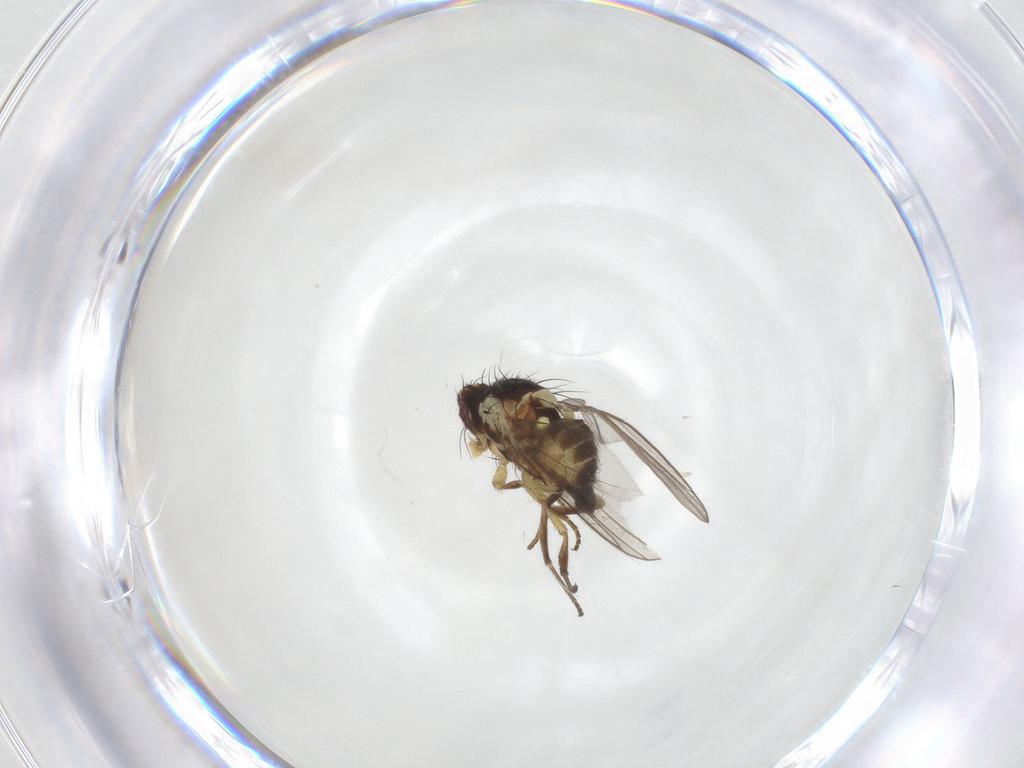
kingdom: Animalia
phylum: Arthropoda
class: Insecta
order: Diptera
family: Agromyzidae
